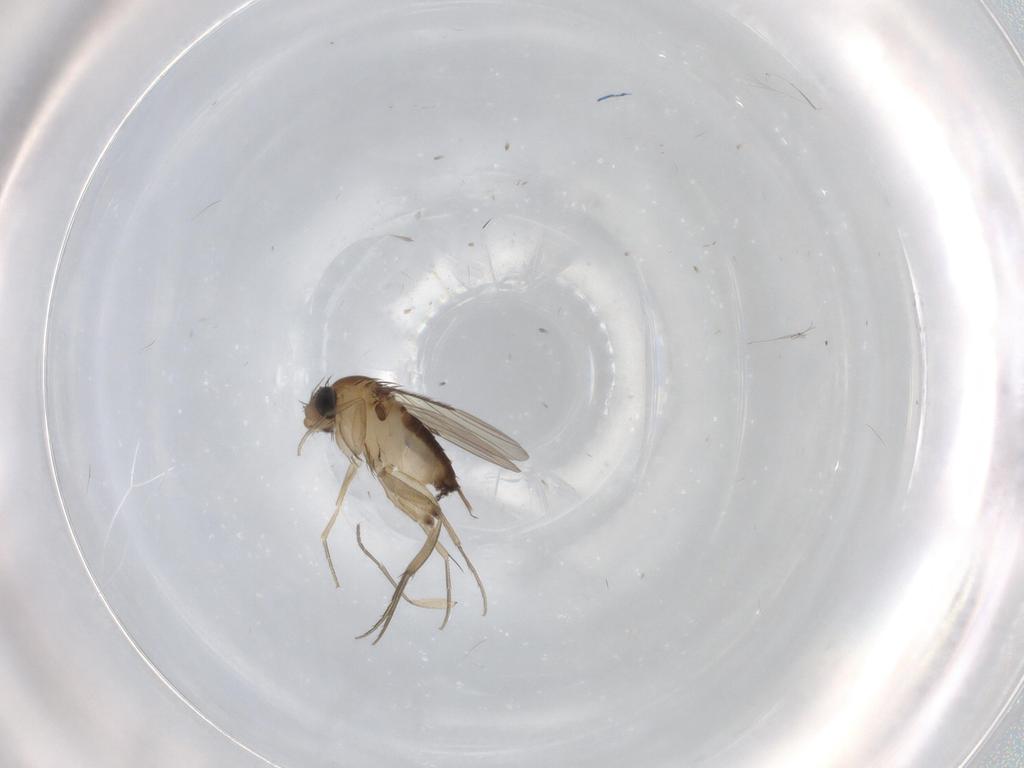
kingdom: Animalia
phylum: Arthropoda
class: Insecta
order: Diptera
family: Phoridae
